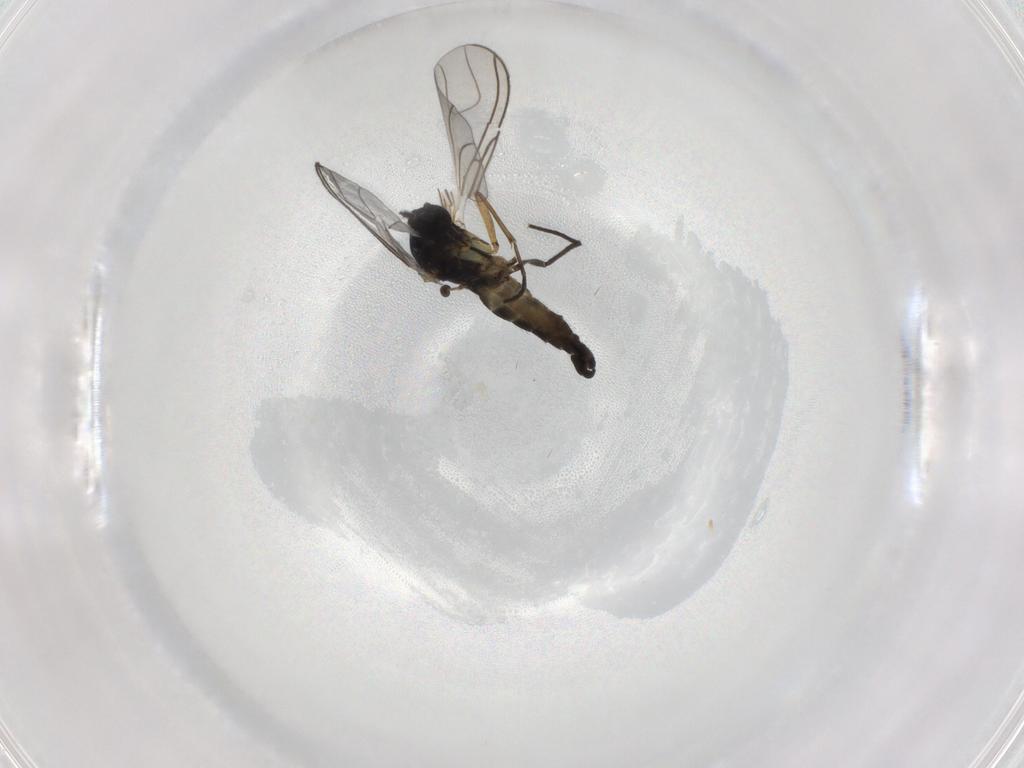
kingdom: Animalia
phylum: Arthropoda
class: Insecta
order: Diptera
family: Sciaridae
